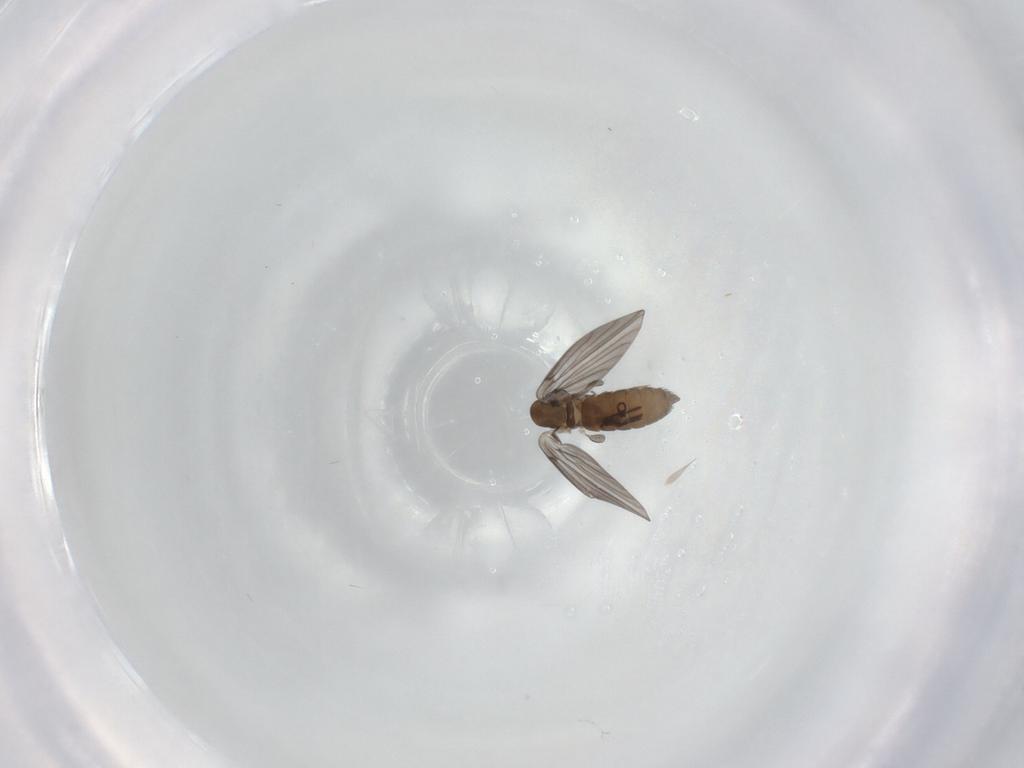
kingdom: Animalia
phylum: Arthropoda
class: Insecta
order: Diptera
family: Psychodidae
